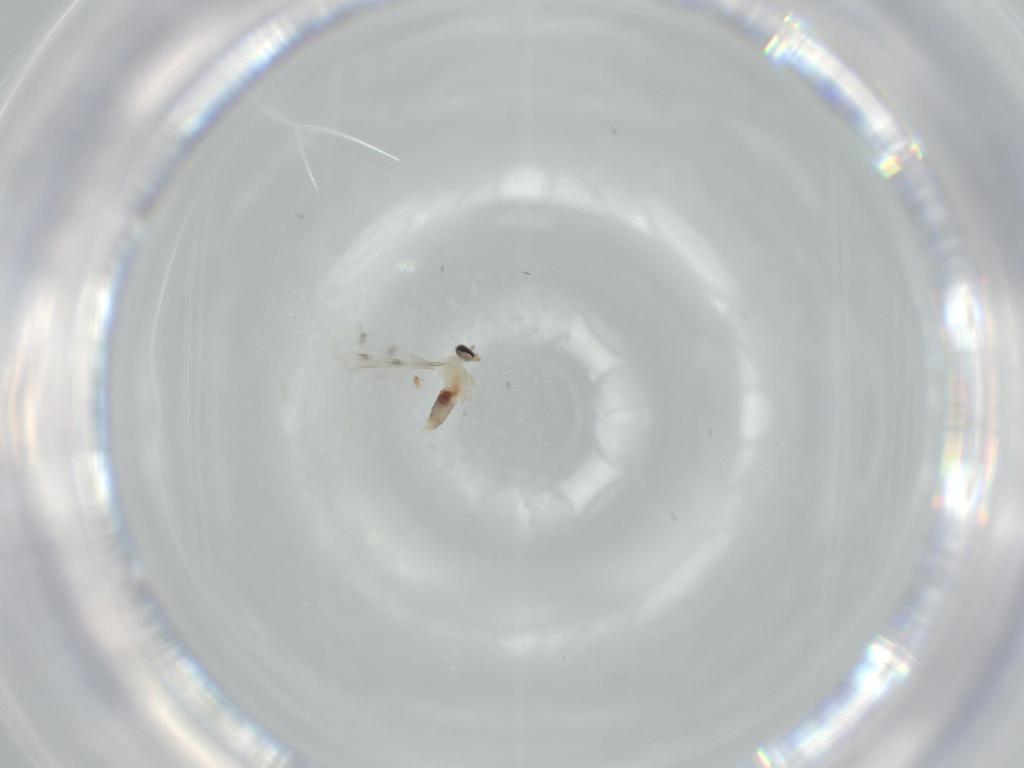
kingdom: Animalia
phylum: Arthropoda
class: Insecta
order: Diptera
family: Cecidomyiidae
